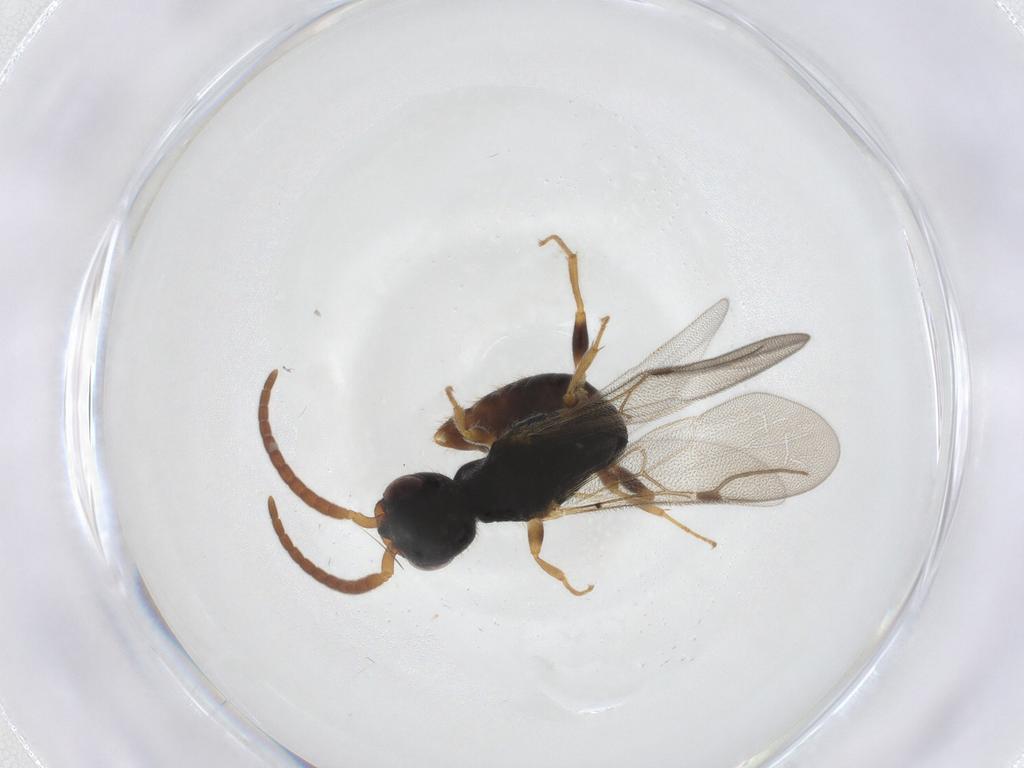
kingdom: Animalia
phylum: Arthropoda
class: Insecta
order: Hymenoptera
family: Bethylidae
